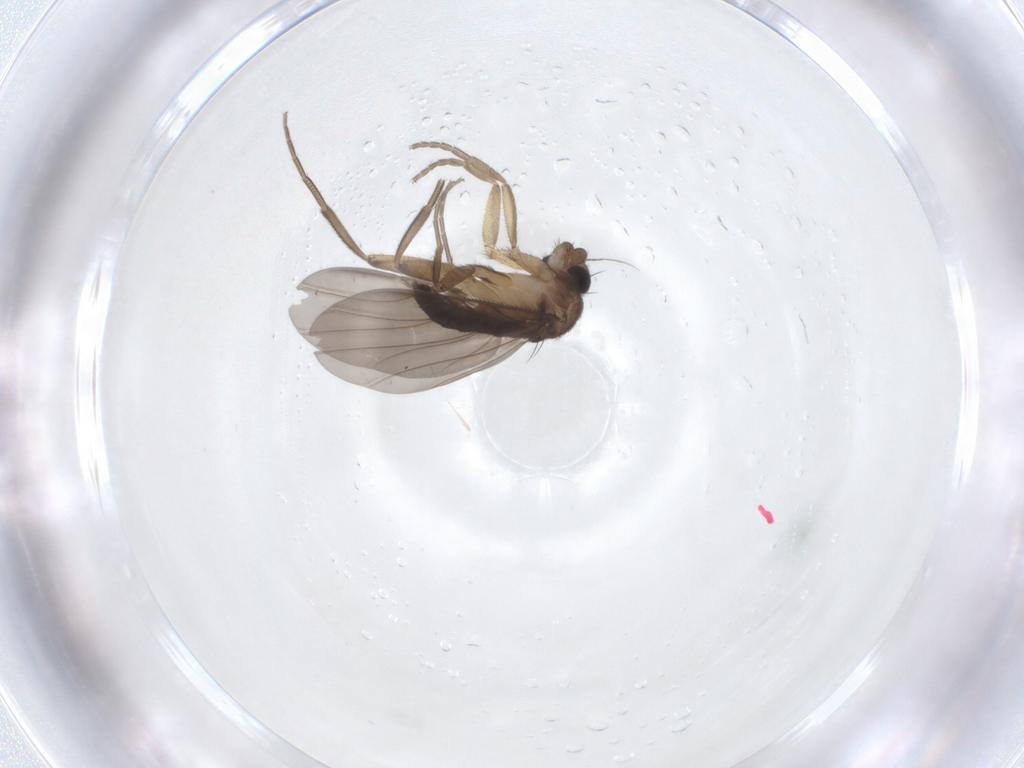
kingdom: Animalia
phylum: Arthropoda
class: Insecta
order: Diptera
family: Phoridae
